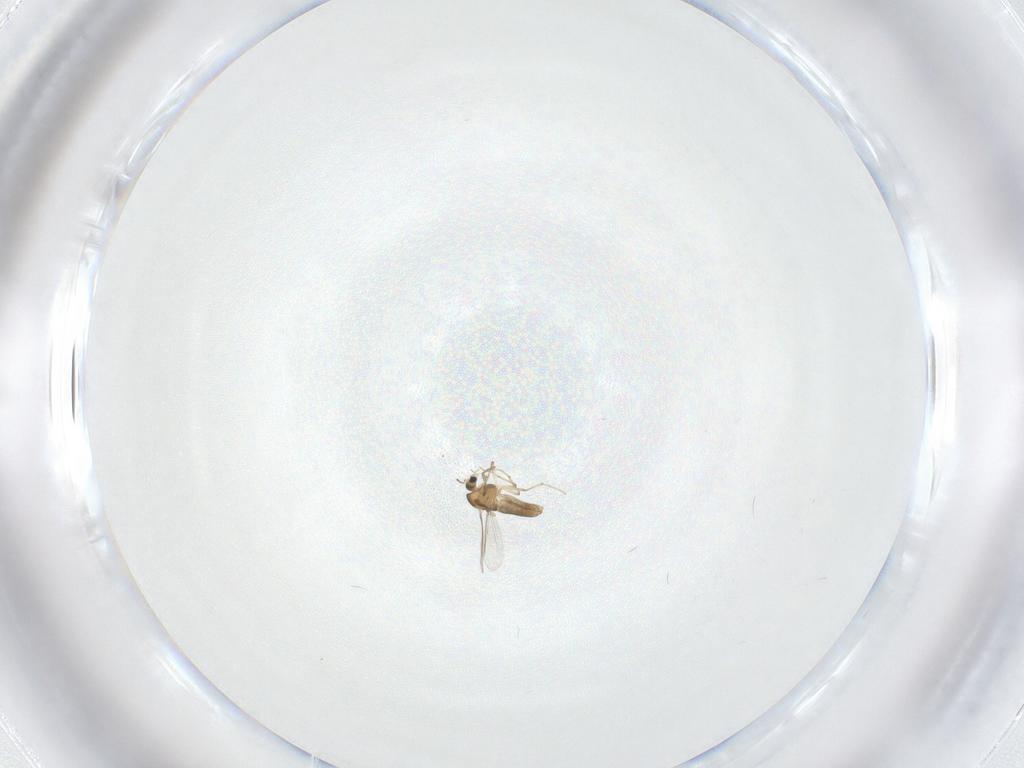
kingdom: Animalia
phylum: Arthropoda
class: Insecta
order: Diptera
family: Chironomidae
